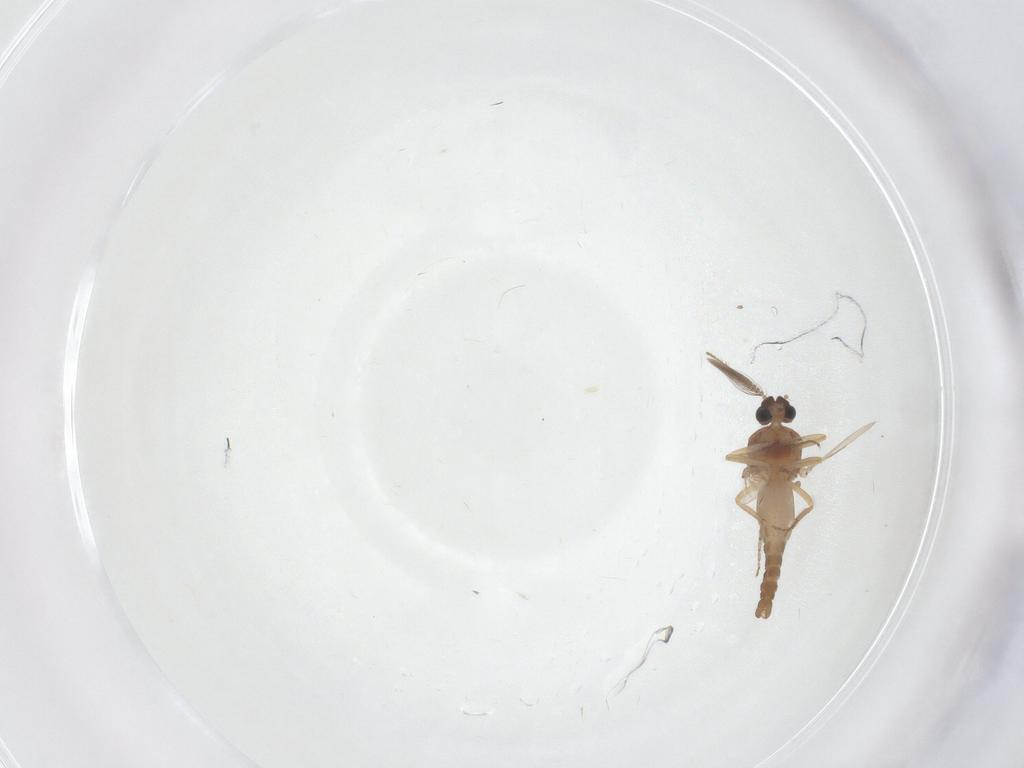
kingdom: Animalia
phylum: Arthropoda
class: Insecta
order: Diptera
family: Ceratopogonidae
